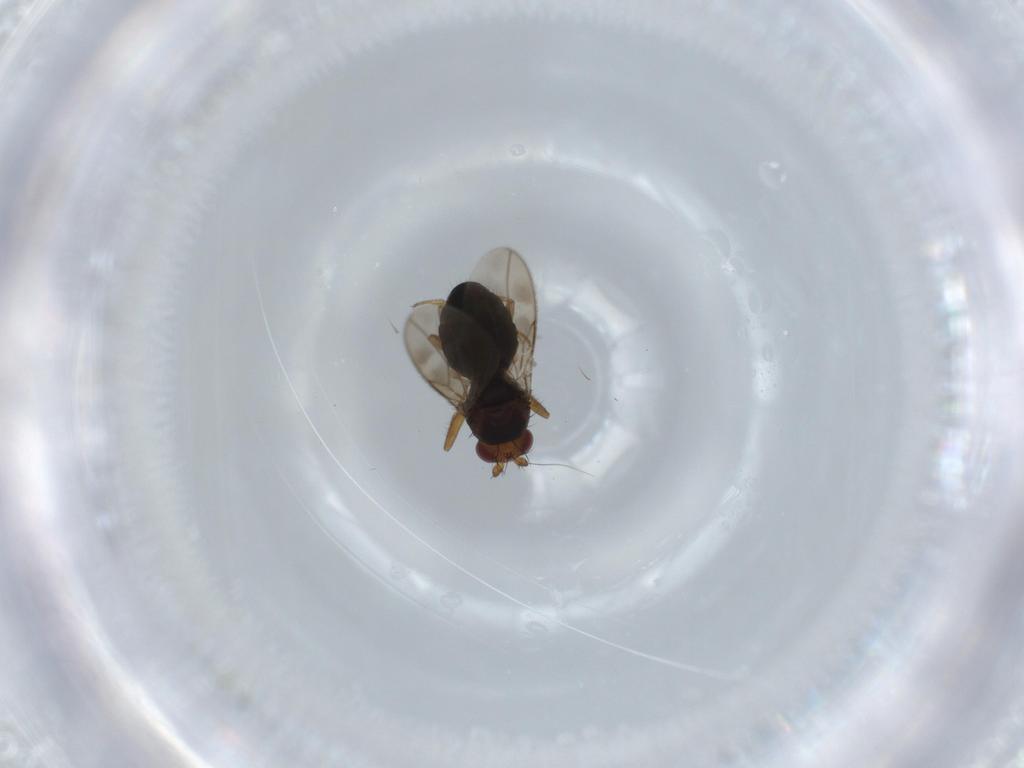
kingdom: Animalia
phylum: Arthropoda
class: Insecta
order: Diptera
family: Sphaeroceridae
